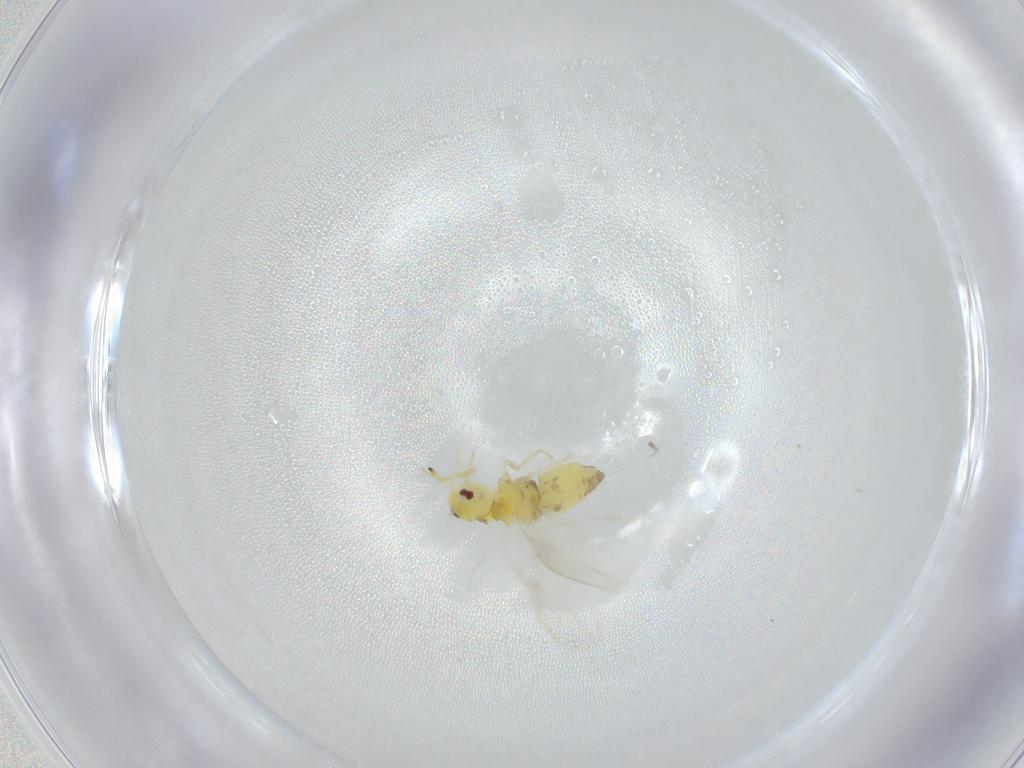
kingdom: Animalia
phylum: Arthropoda
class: Insecta
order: Hemiptera
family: Aleyrodidae
